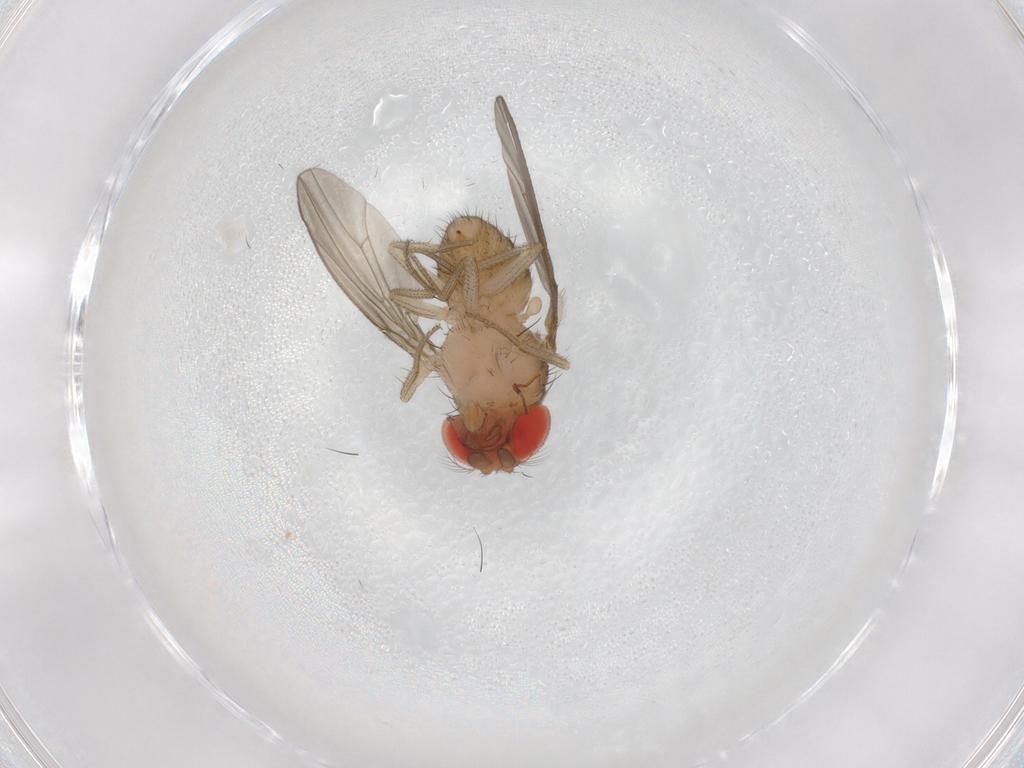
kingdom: Animalia
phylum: Arthropoda
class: Insecta
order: Diptera
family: Drosophilidae
